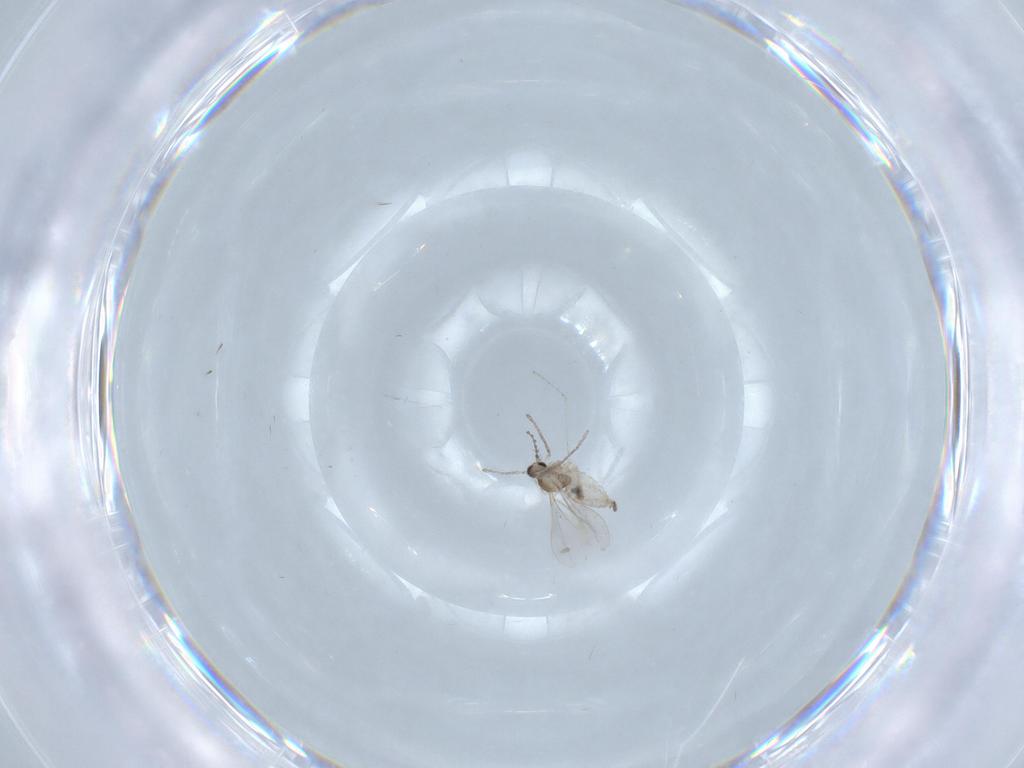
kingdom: Animalia
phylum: Arthropoda
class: Insecta
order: Diptera
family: Cecidomyiidae
